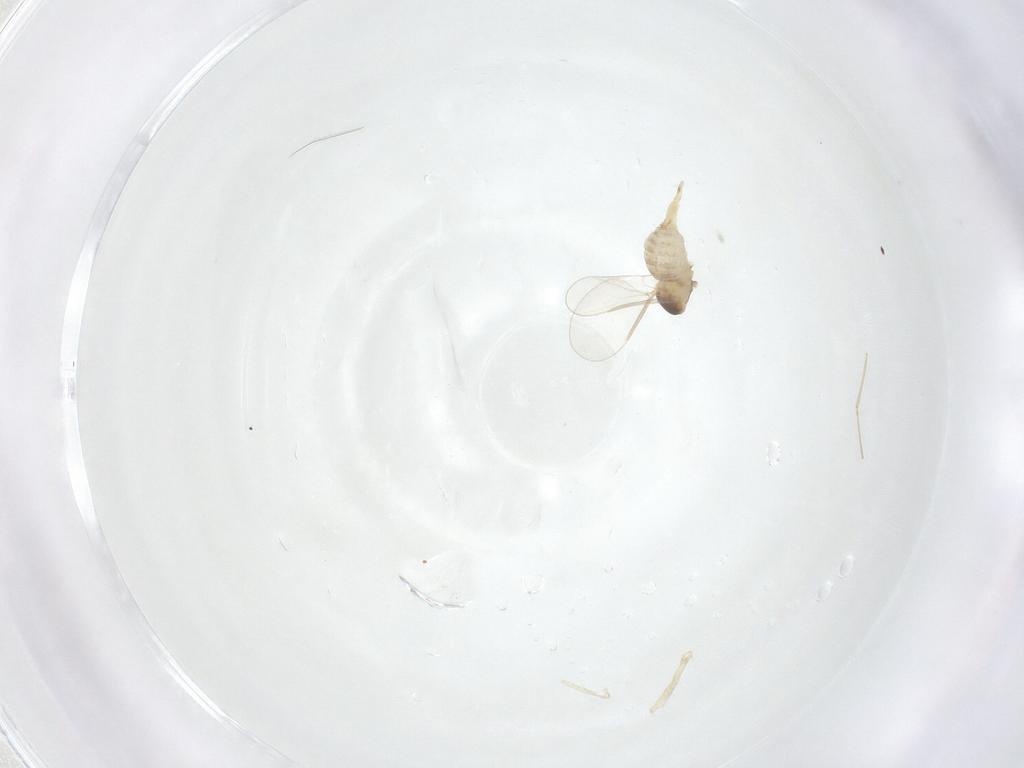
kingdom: Animalia
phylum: Arthropoda
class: Insecta
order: Diptera
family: Cecidomyiidae
